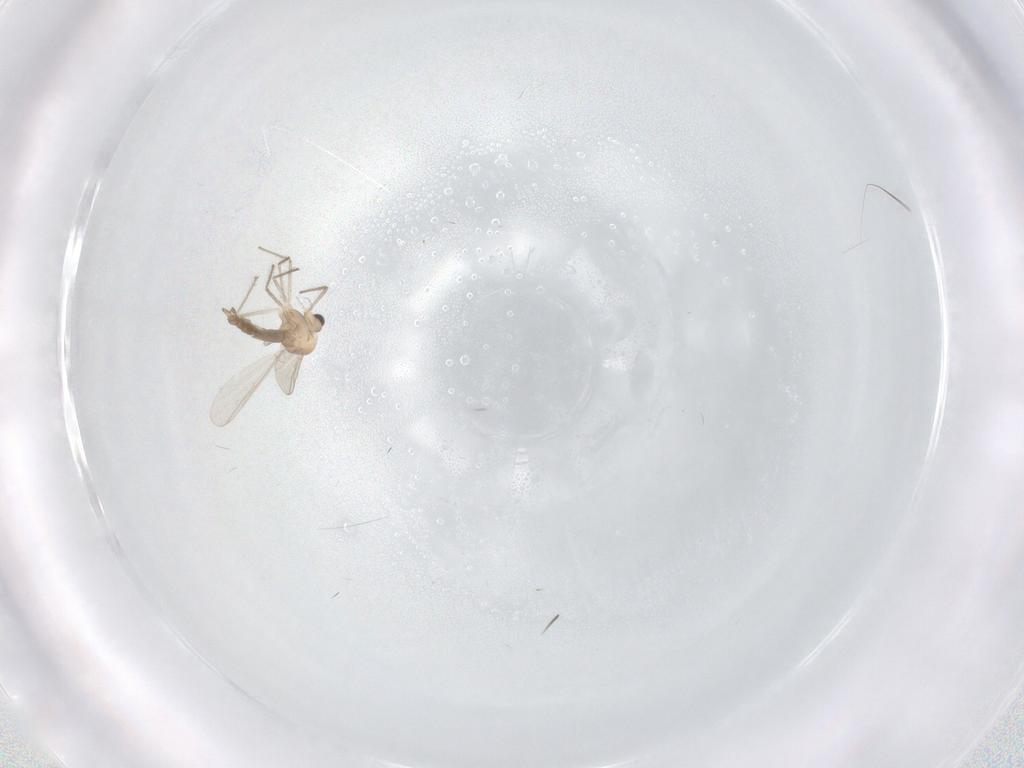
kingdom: Animalia
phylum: Arthropoda
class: Insecta
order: Diptera
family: Chironomidae
